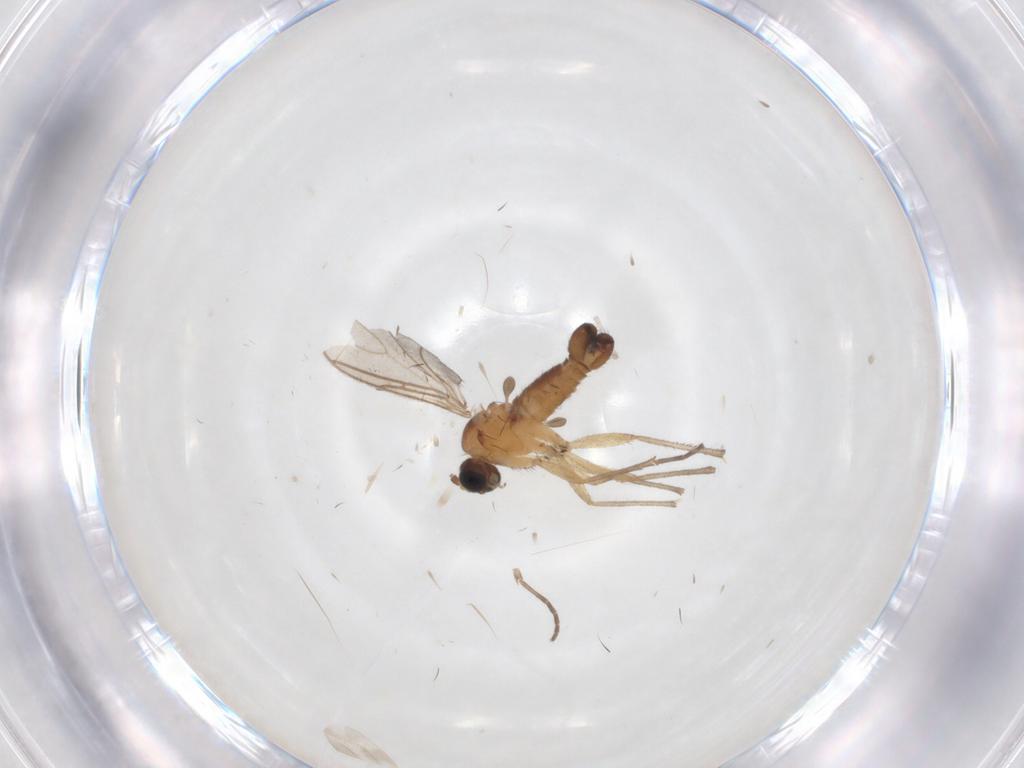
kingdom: Animalia
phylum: Arthropoda
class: Insecta
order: Diptera
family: Sciaridae
